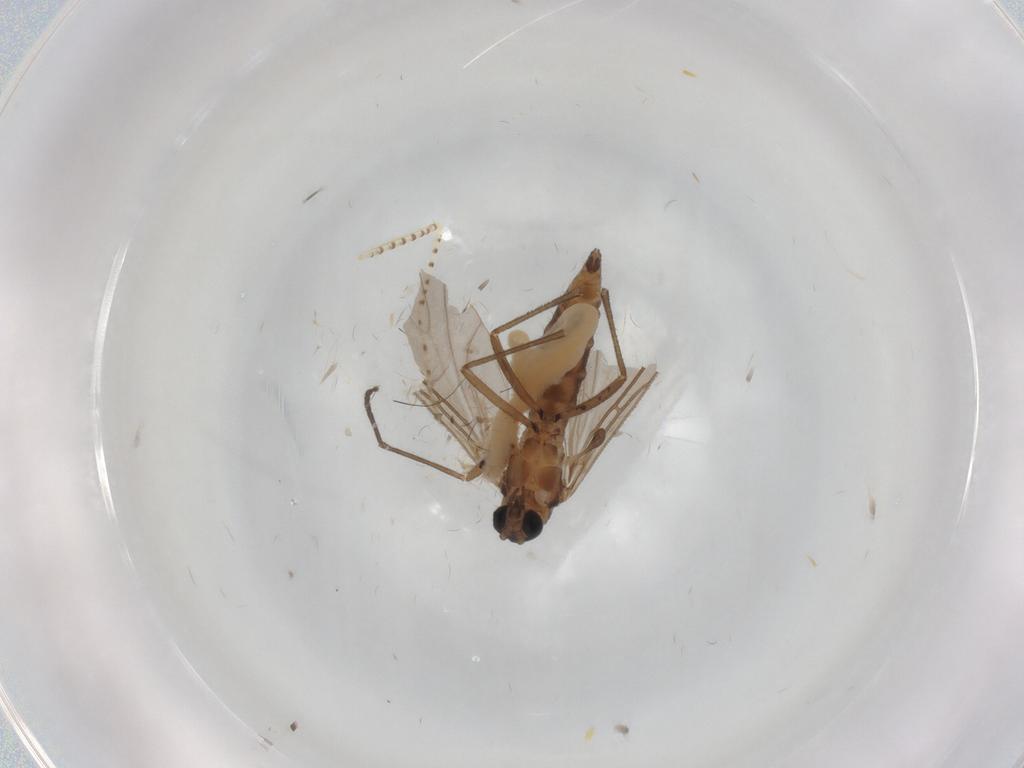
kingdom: Animalia
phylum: Arthropoda
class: Insecta
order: Diptera
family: Sciaridae
